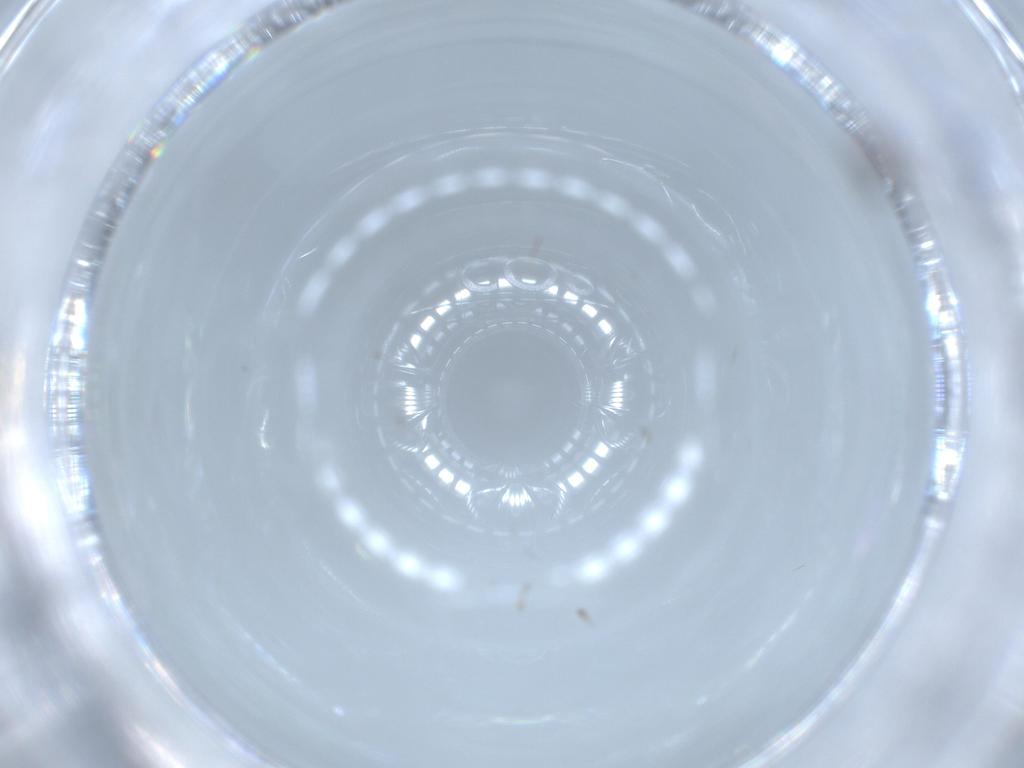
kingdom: Animalia
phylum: Arthropoda
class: Insecta
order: Hymenoptera
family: Platygastridae
